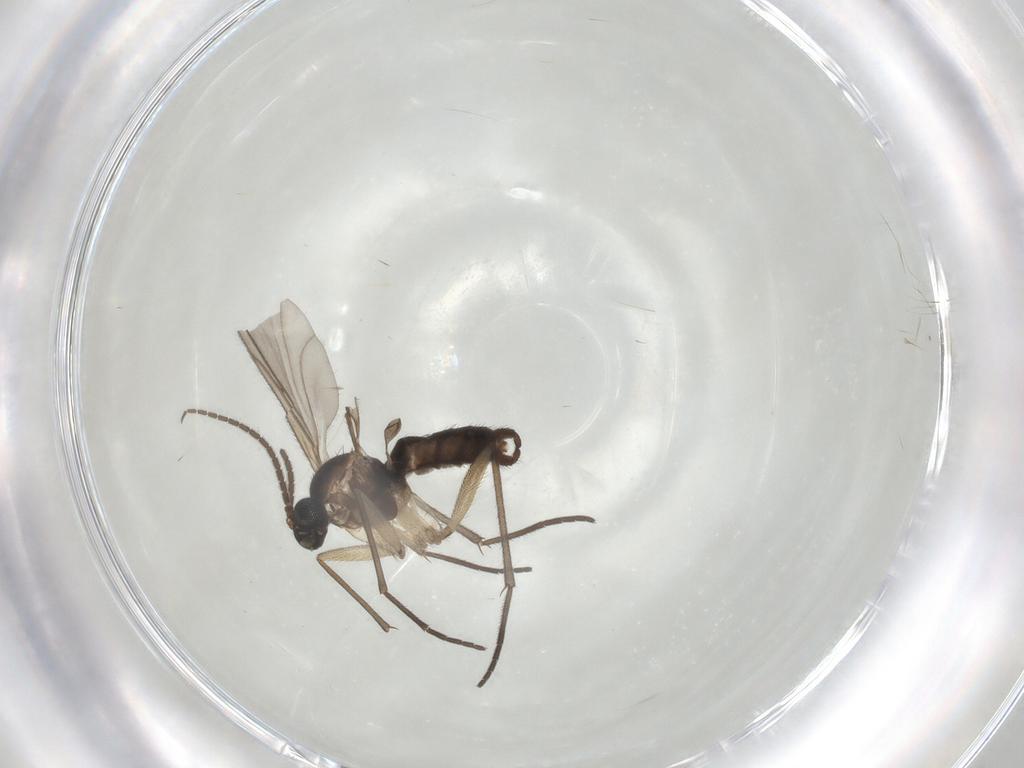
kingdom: Animalia
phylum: Arthropoda
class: Insecta
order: Diptera
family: Sciaridae
